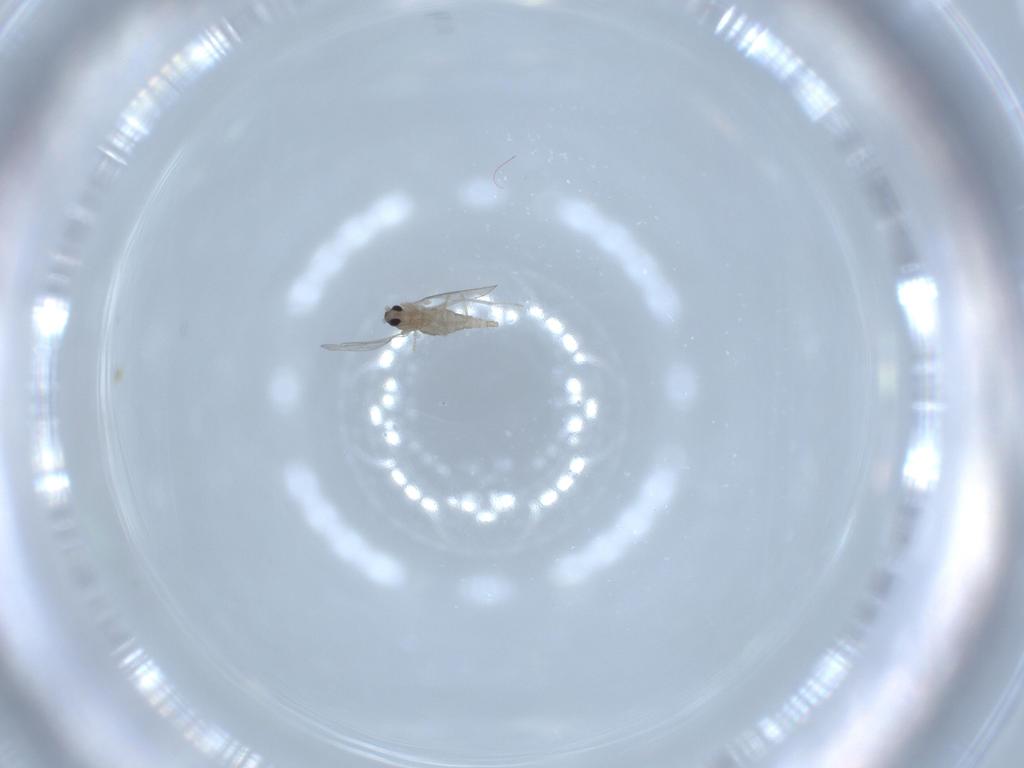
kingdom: Animalia
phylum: Arthropoda
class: Insecta
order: Diptera
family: Cecidomyiidae
